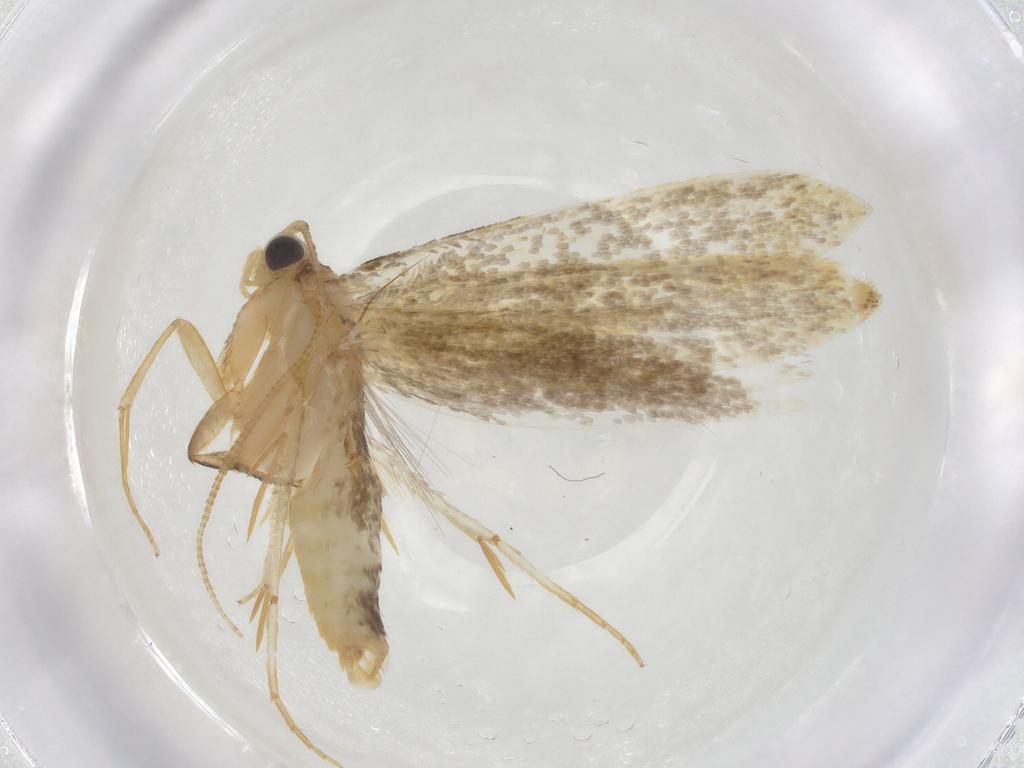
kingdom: Animalia
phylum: Arthropoda
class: Insecta
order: Lepidoptera
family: Tineidae
